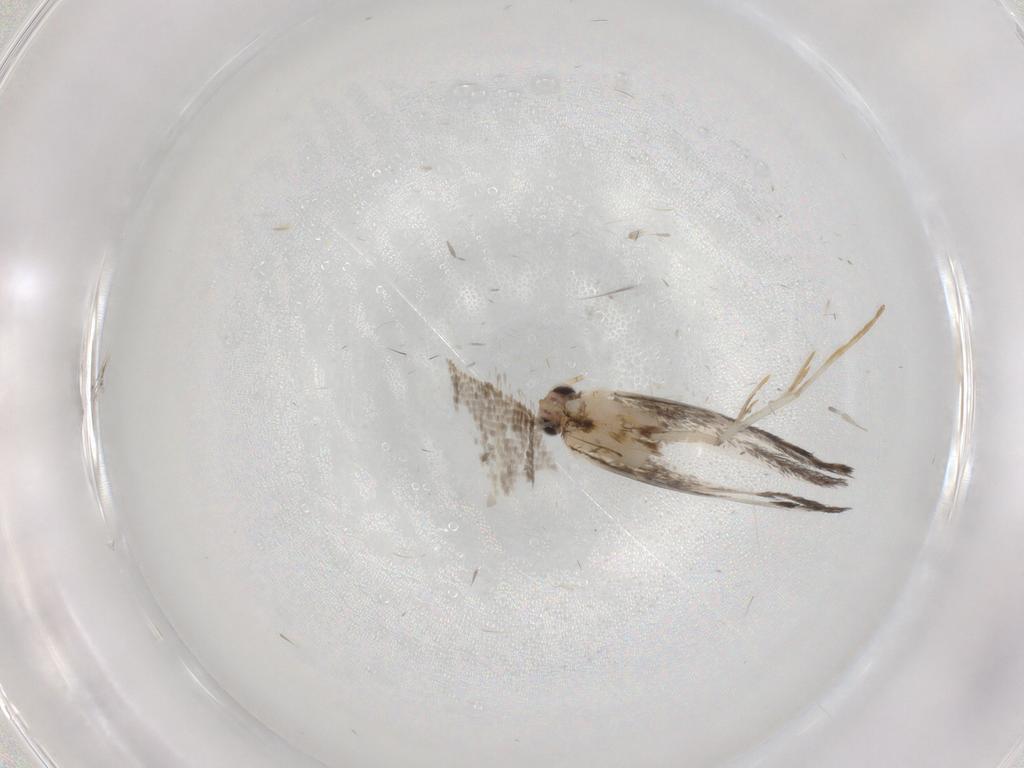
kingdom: Animalia
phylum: Arthropoda
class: Insecta
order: Lepidoptera
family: Tineidae
